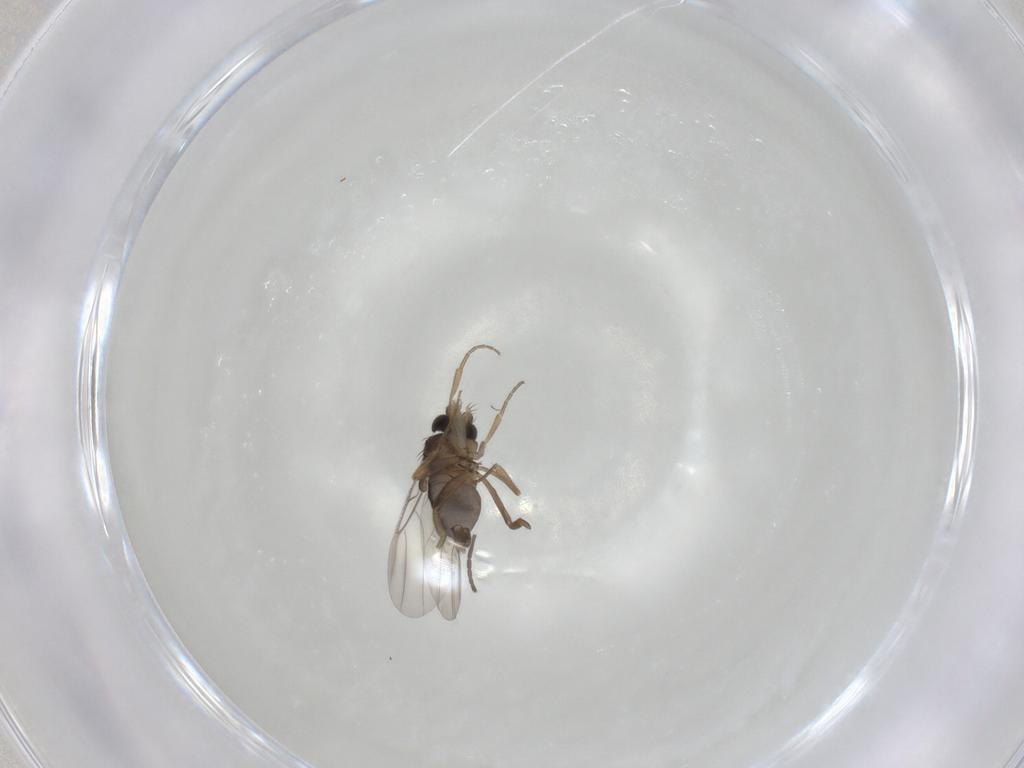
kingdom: Animalia
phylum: Arthropoda
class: Insecta
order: Diptera
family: Phoridae
